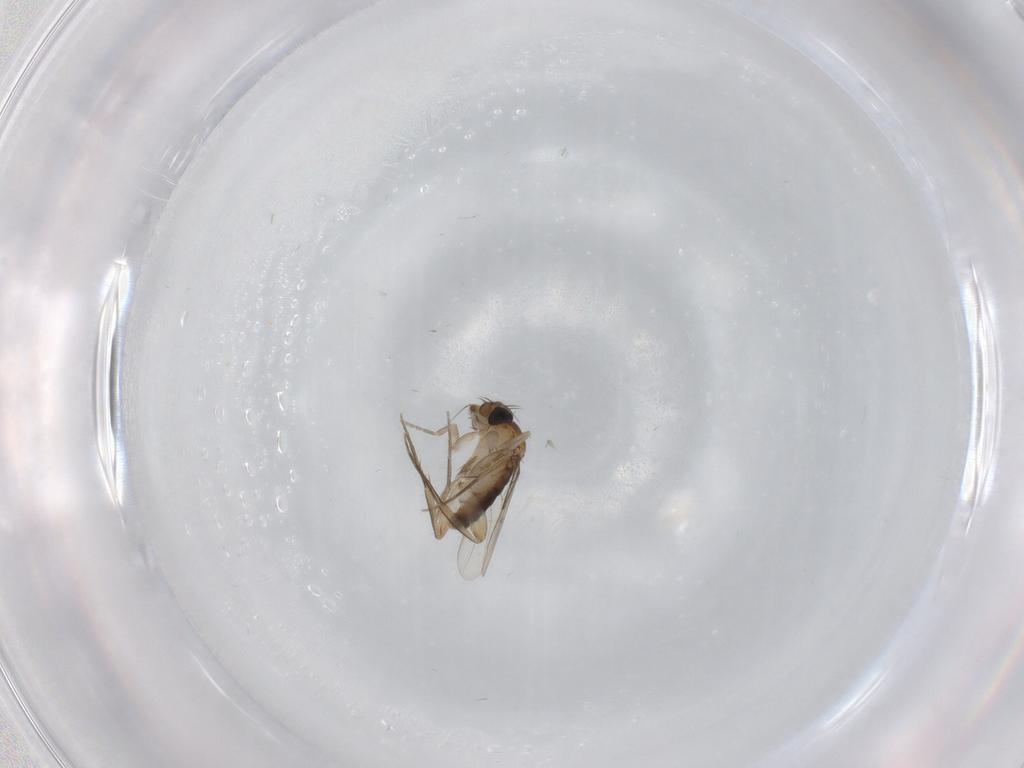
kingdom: Animalia
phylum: Arthropoda
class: Insecta
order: Diptera
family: Phoridae
